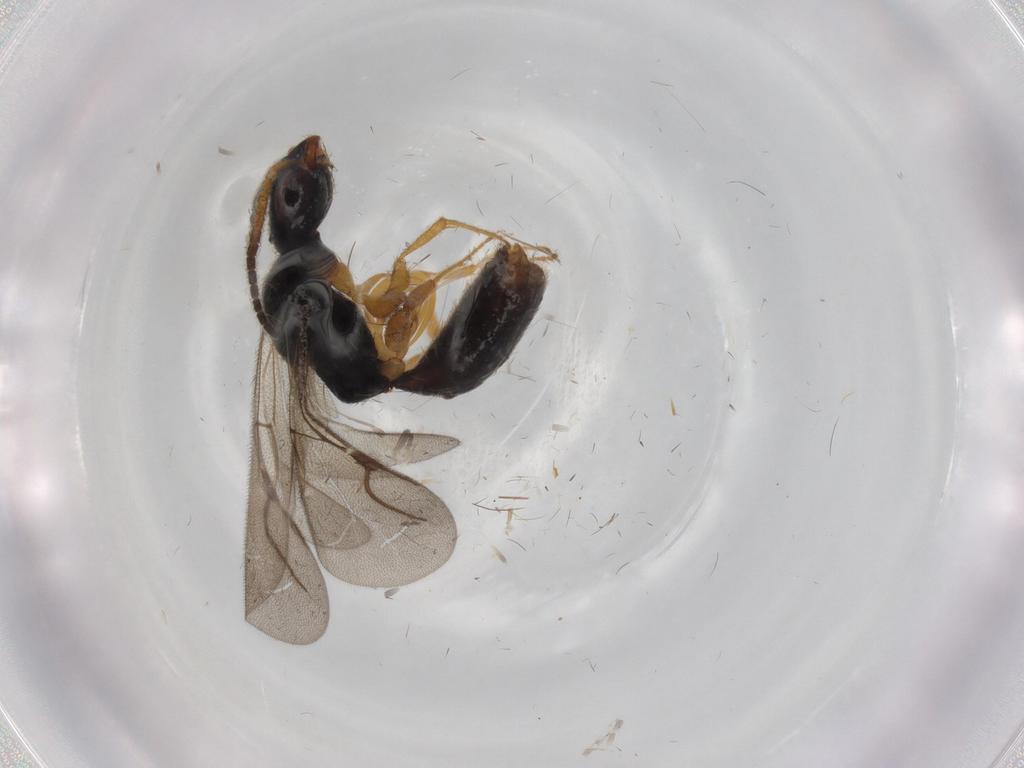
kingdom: Animalia
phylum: Arthropoda
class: Insecta
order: Hymenoptera
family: Bethylidae
